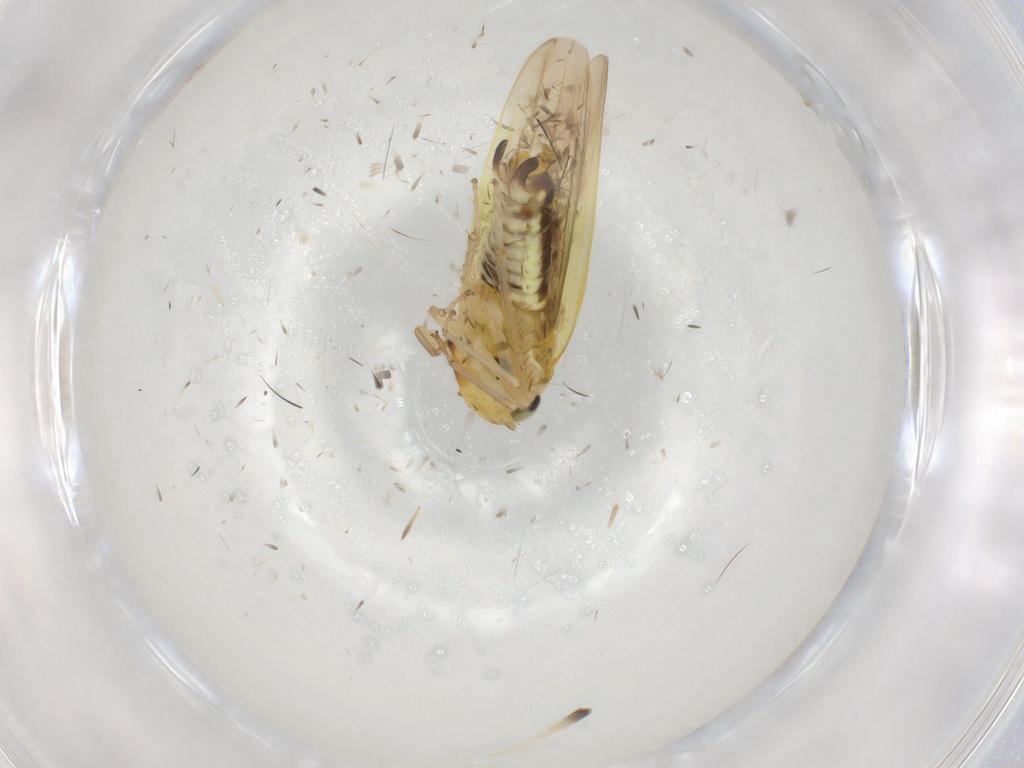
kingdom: Animalia
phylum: Arthropoda
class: Insecta
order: Hemiptera
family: Cicadellidae
